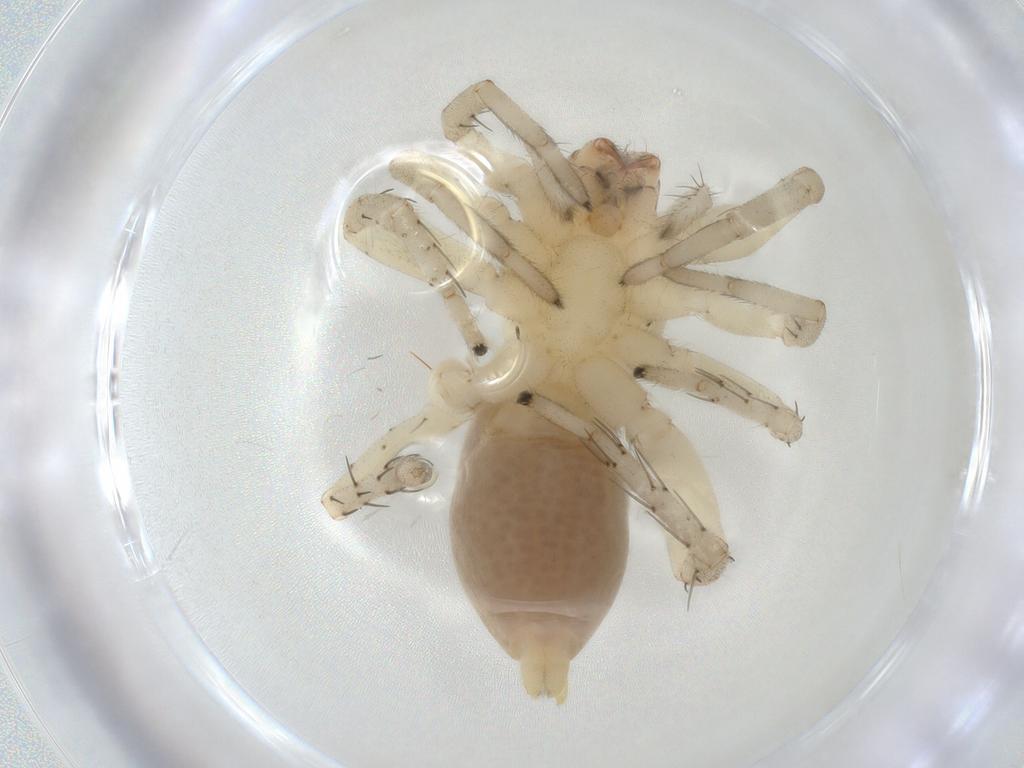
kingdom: Animalia
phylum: Arthropoda
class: Arachnida
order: Araneae
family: Clubionidae
